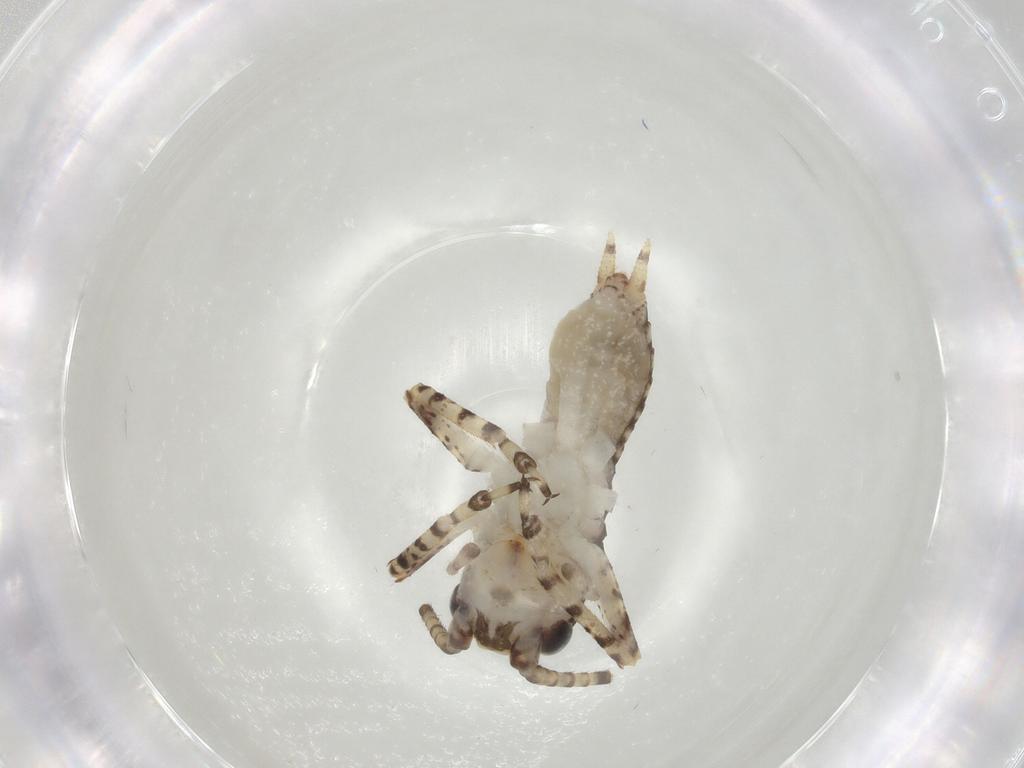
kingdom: Animalia
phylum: Arthropoda
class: Insecta
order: Orthoptera
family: Gryllidae
